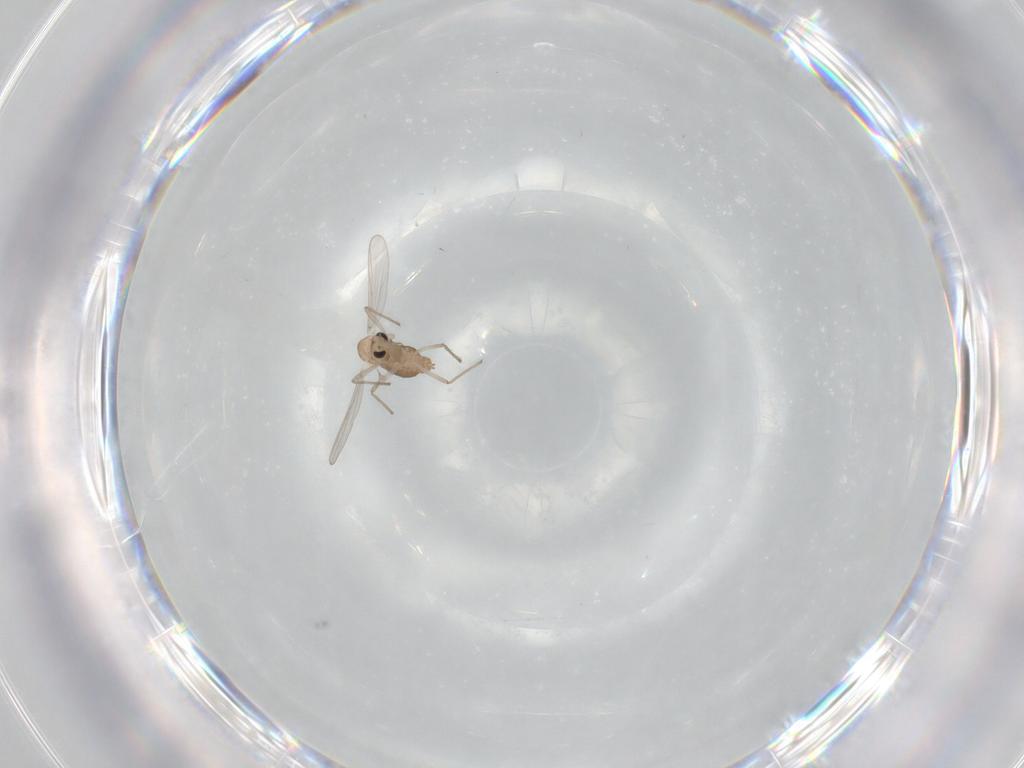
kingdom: Animalia
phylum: Arthropoda
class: Insecta
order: Diptera
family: Chironomidae
